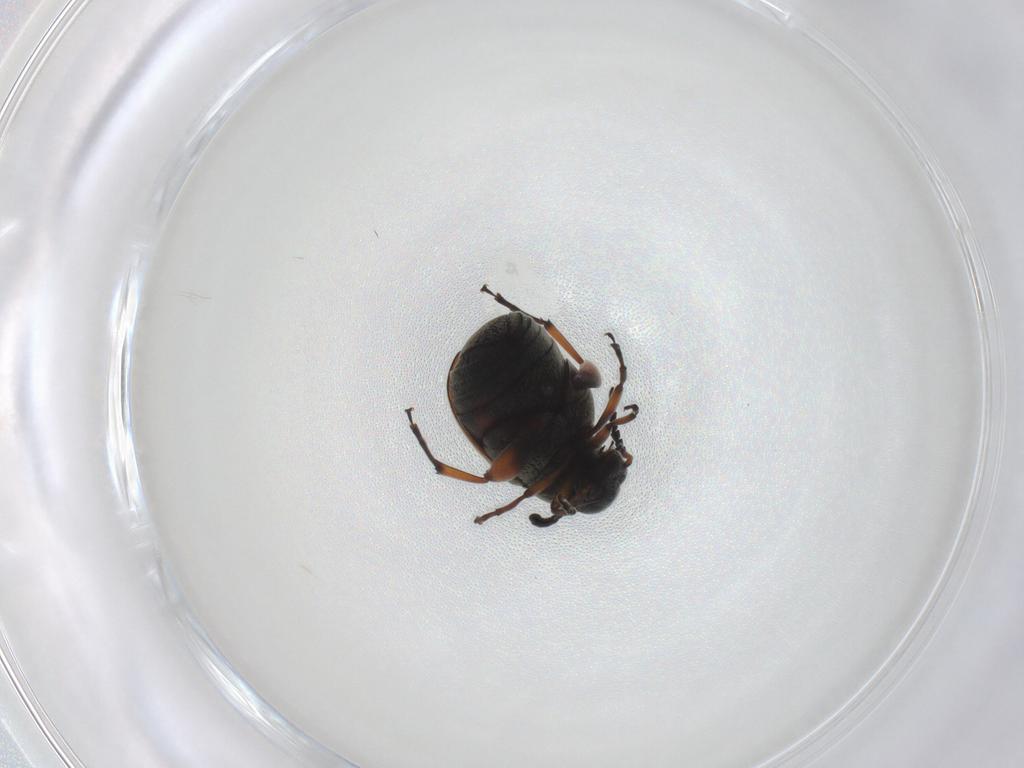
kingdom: Animalia
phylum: Arthropoda
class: Insecta
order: Coleoptera
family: Chrysomelidae
